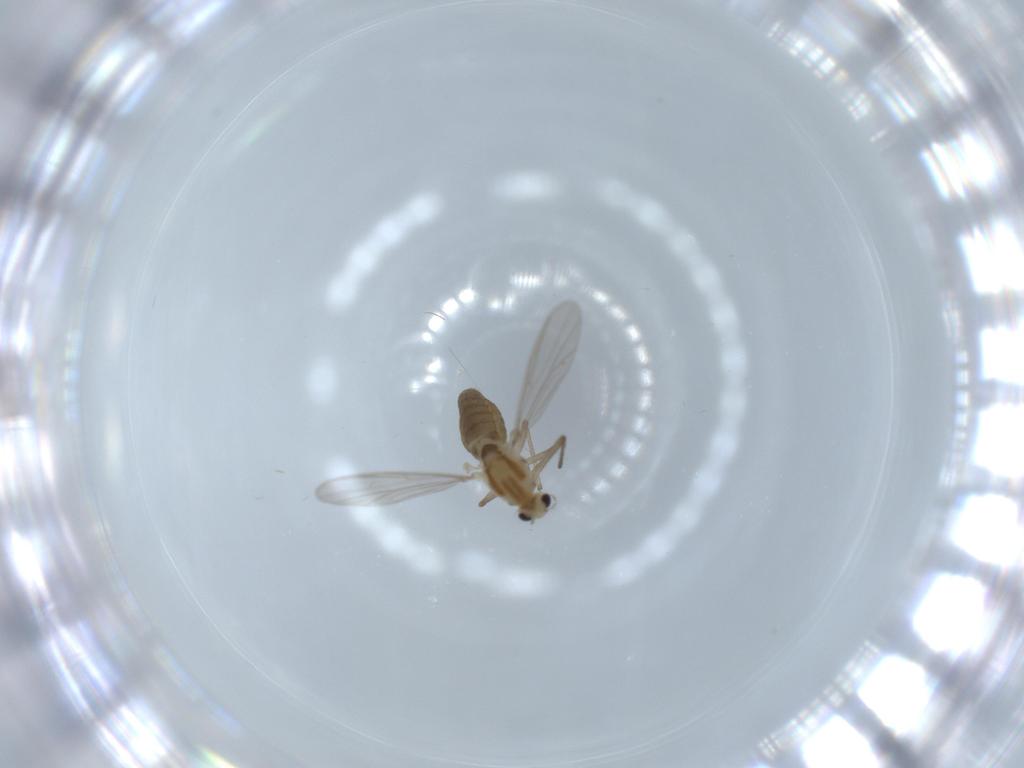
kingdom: Animalia
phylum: Arthropoda
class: Insecta
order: Diptera
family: Chironomidae
